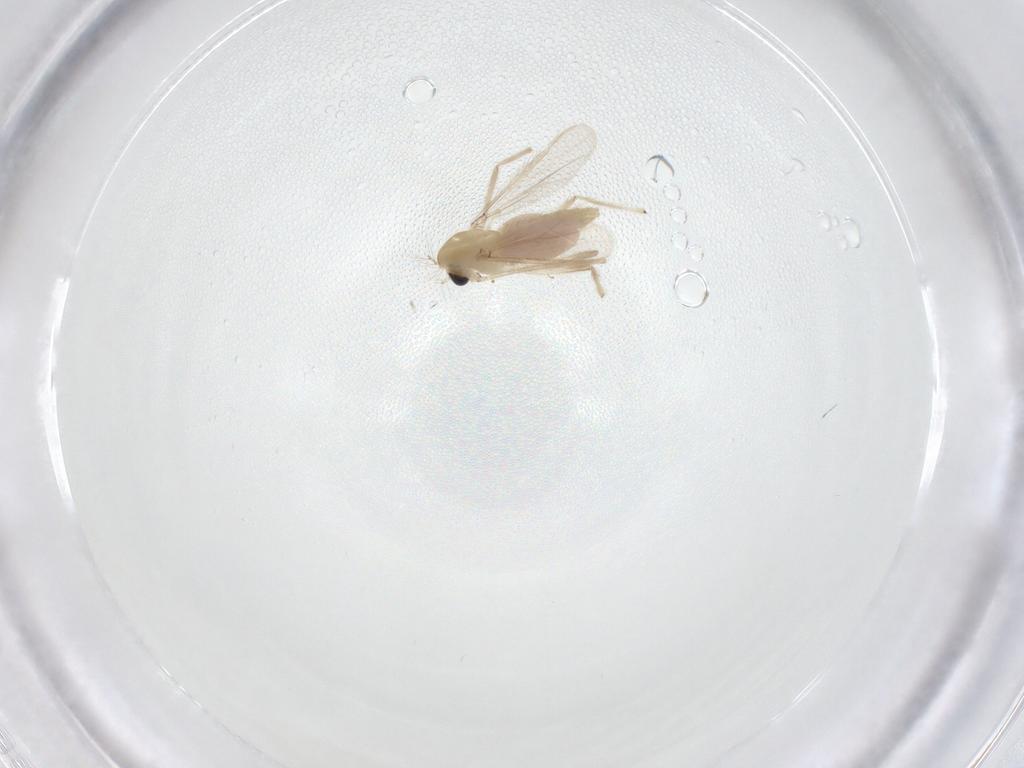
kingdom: Animalia
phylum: Arthropoda
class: Insecta
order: Diptera
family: Chironomidae
